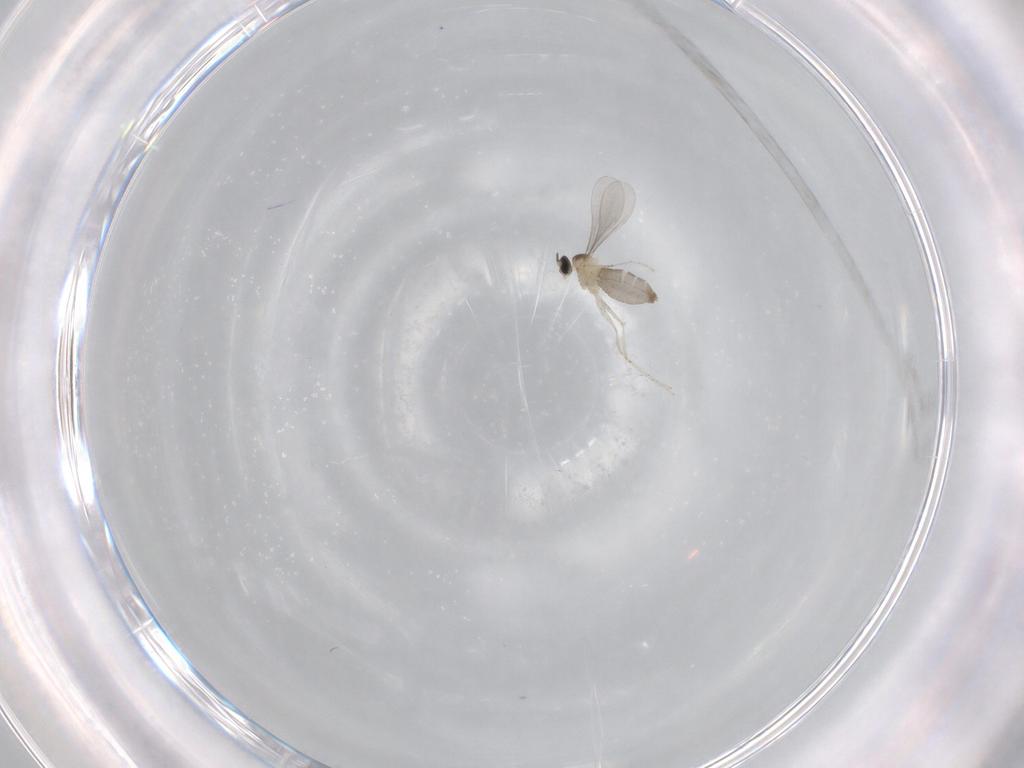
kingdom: Animalia
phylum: Arthropoda
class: Insecta
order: Diptera
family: Cecidomyiidae
